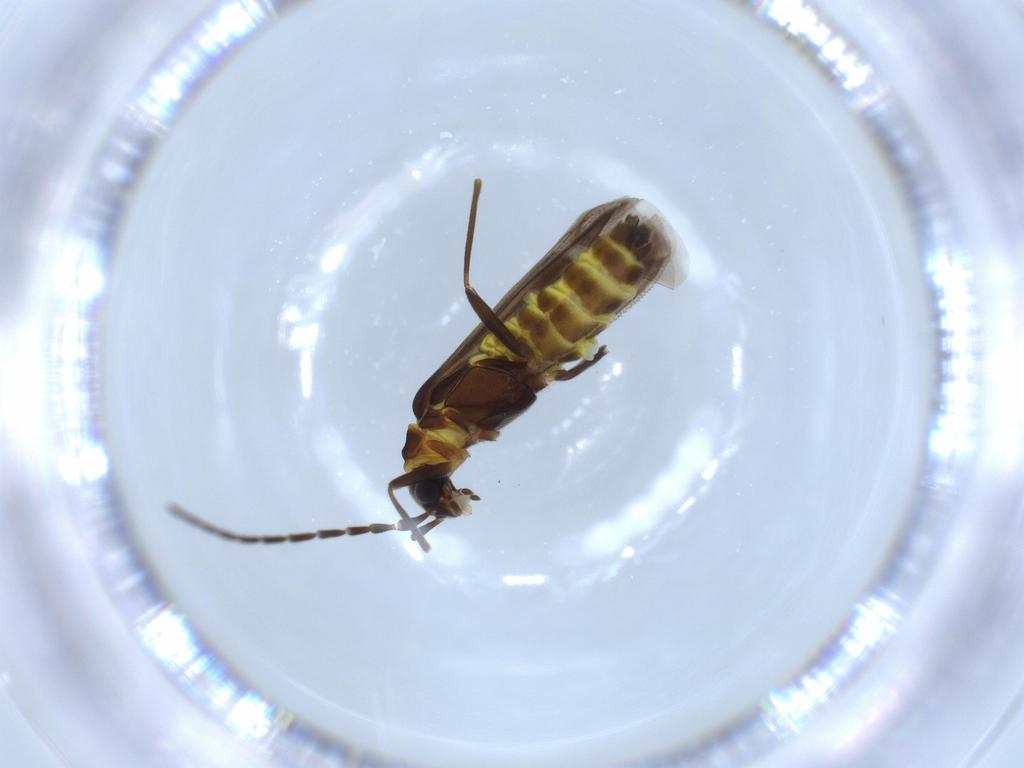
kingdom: Animalia
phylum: Arthropoda
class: Insecta
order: Coleoptera
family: Cantharidae
